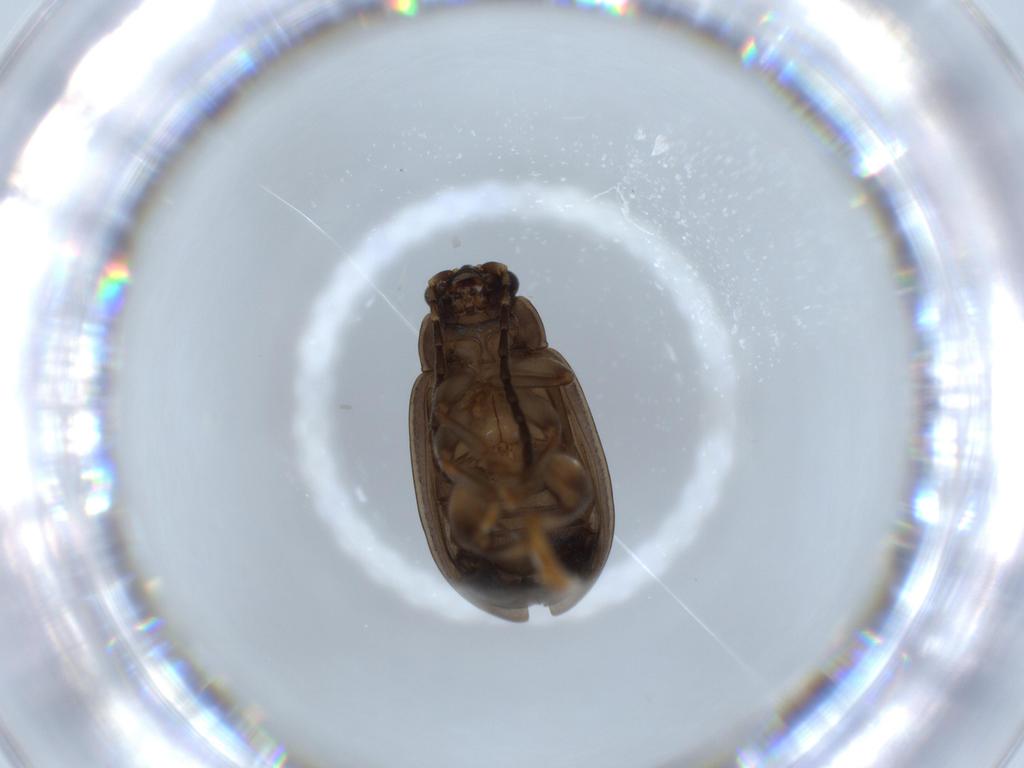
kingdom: Animalia
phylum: Arthropoda
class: Insecta
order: Coleoptera
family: Chrysomelidae
